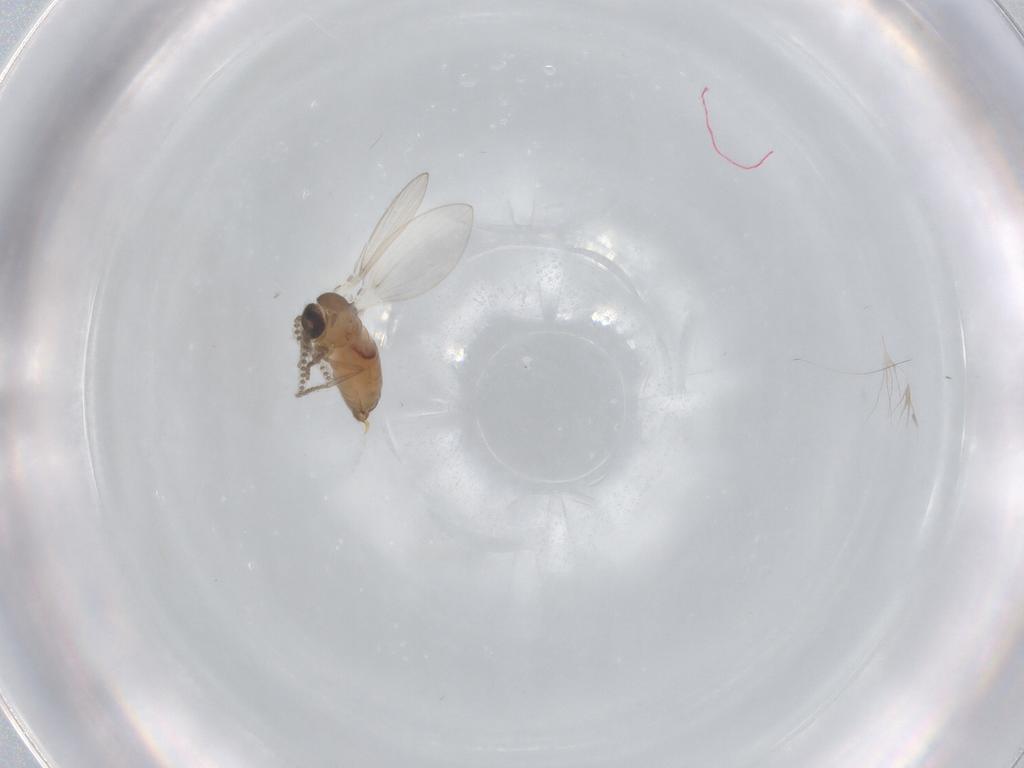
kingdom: Animalia
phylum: Arthropoda
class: Insecta
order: Diptera
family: Psychodidae
